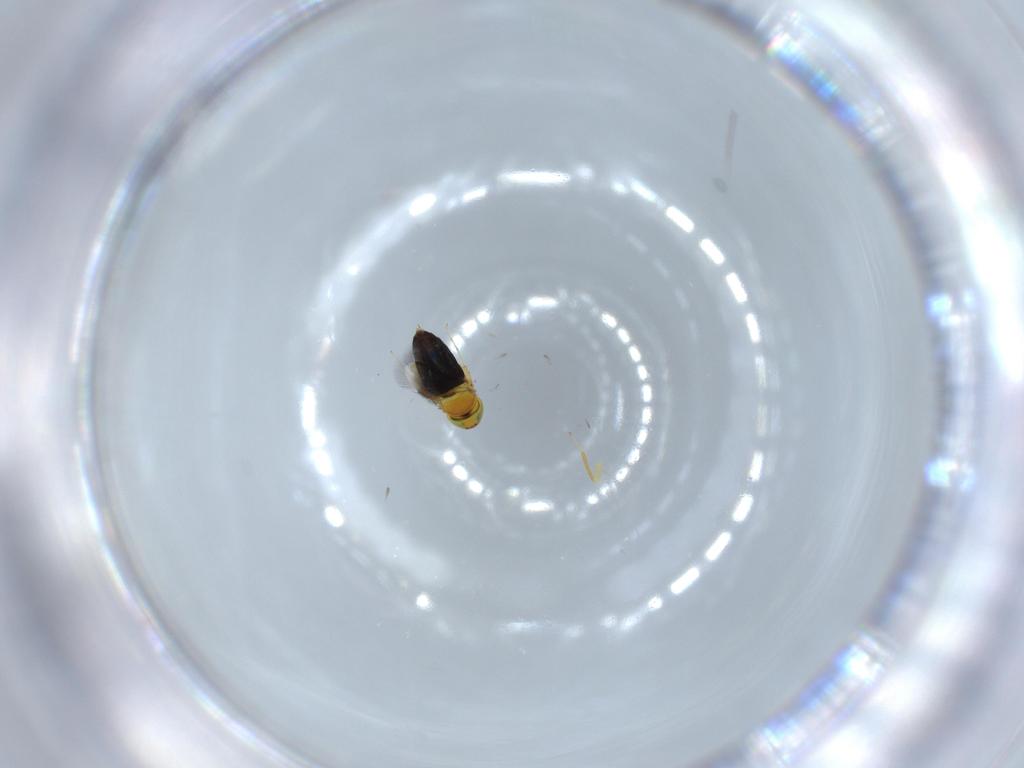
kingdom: Animalia
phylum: Arthropoda
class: Insecta
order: Hymenoptera
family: Signiphoridae
